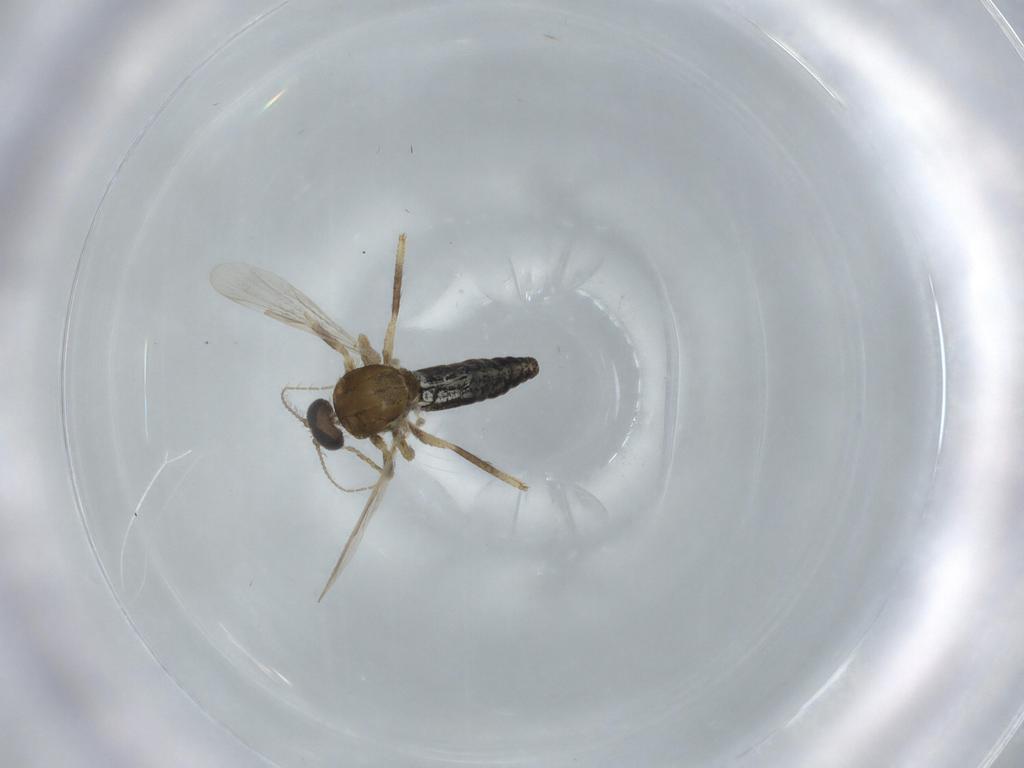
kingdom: Animalia
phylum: Arthropoda
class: Insecta
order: Diptera
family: Ceratopogonidae
